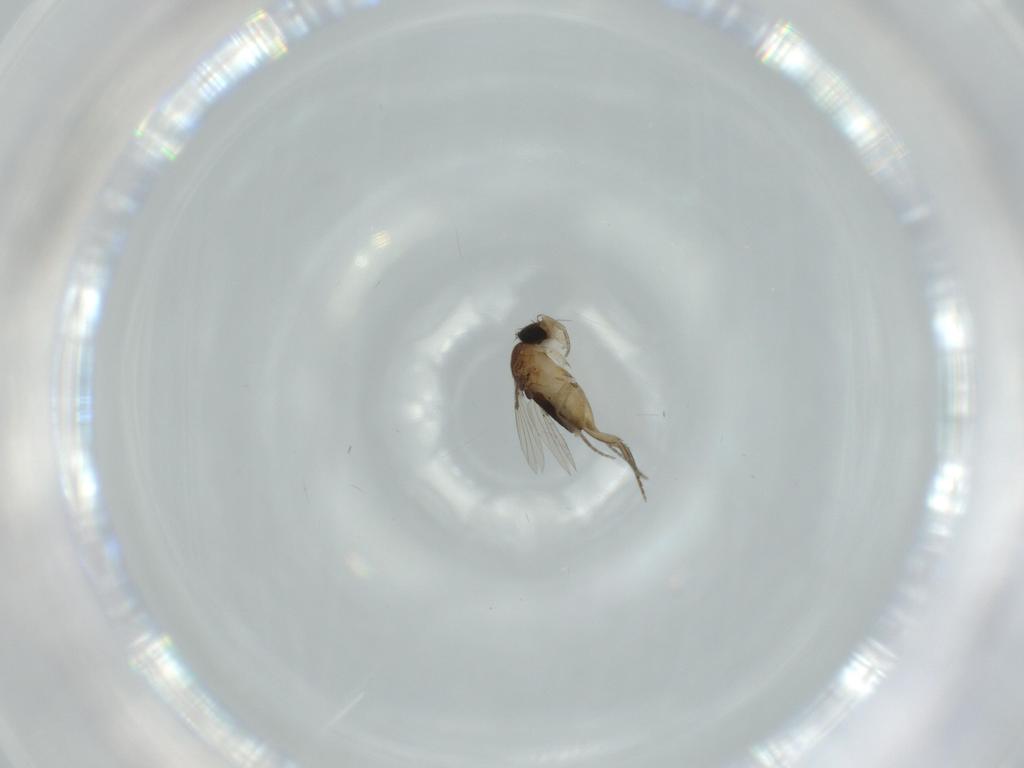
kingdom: Animalia
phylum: Arthropoda
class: Insecta
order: Diptera
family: Phoridae
